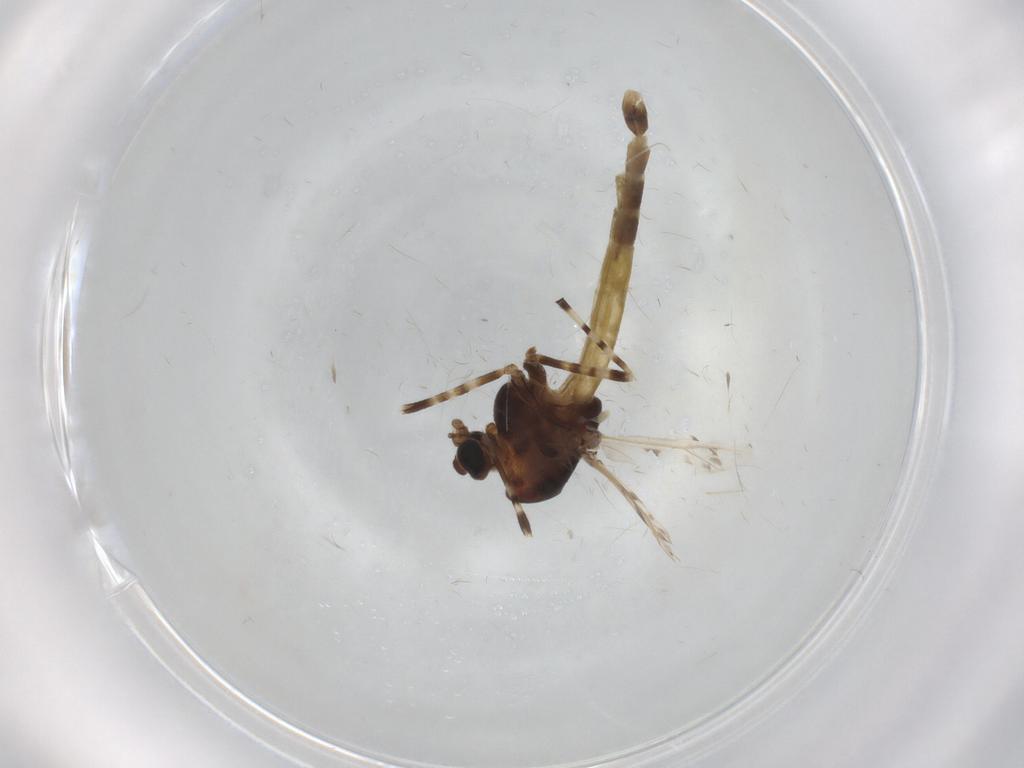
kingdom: Animalia
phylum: Arthropoda
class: Insecta
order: Diptera
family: Chironomidae
